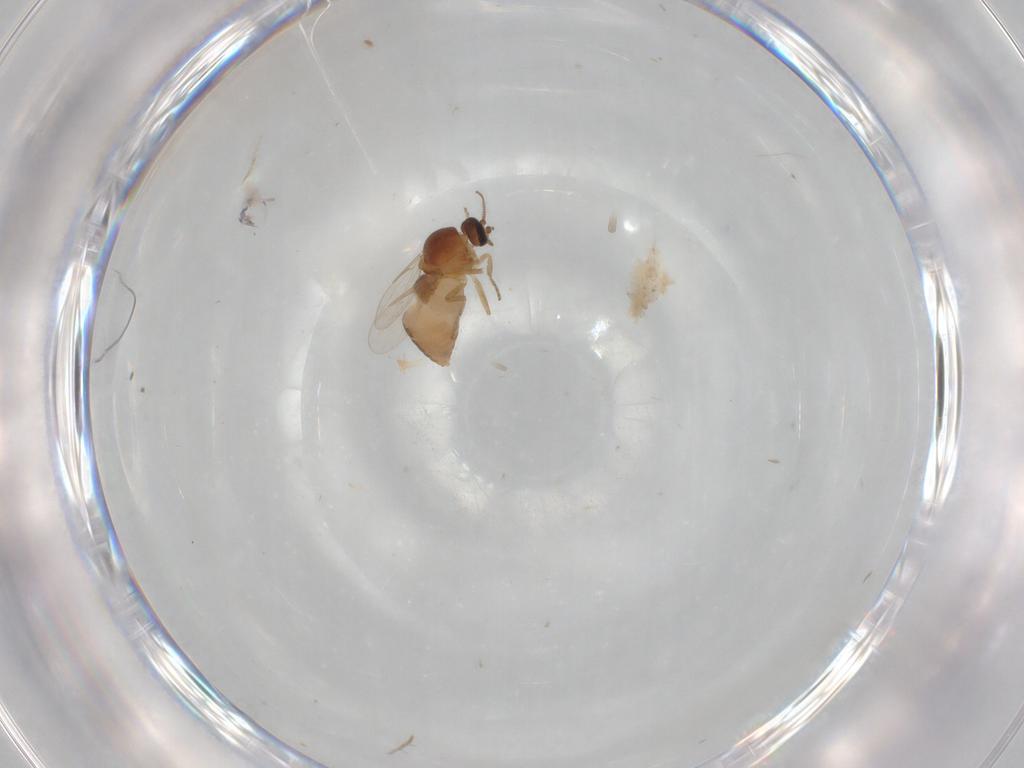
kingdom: Animalia
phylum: Arthropoda
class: Insecta
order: Diptera
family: Ceratopogonidae
